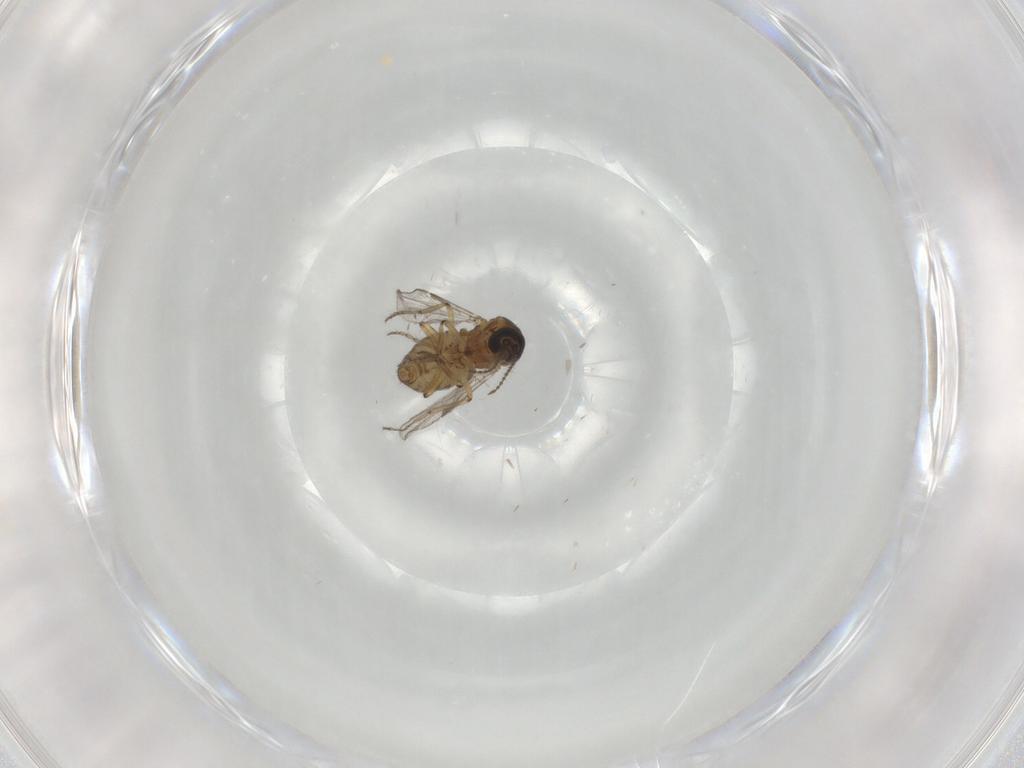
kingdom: Animalia
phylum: Arthropoda
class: Insecta
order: Diptera
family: Ceratopogonidae
